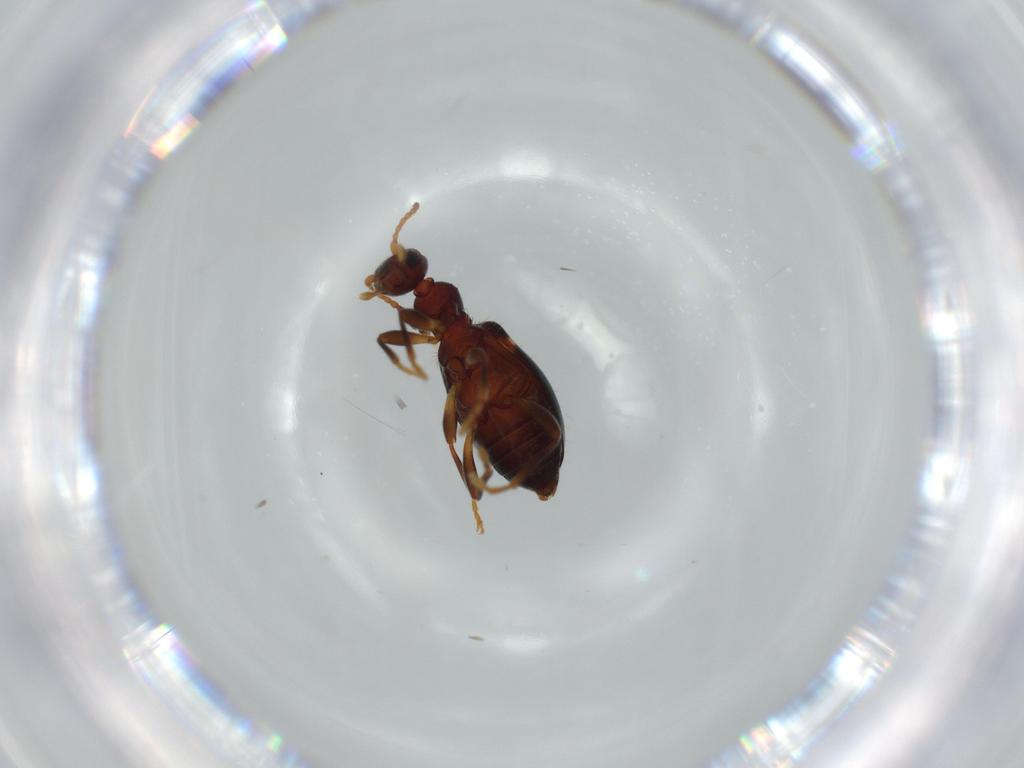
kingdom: Animalia
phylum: Arthropoda
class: Insecta
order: Coleoptera
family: Anthicidae
